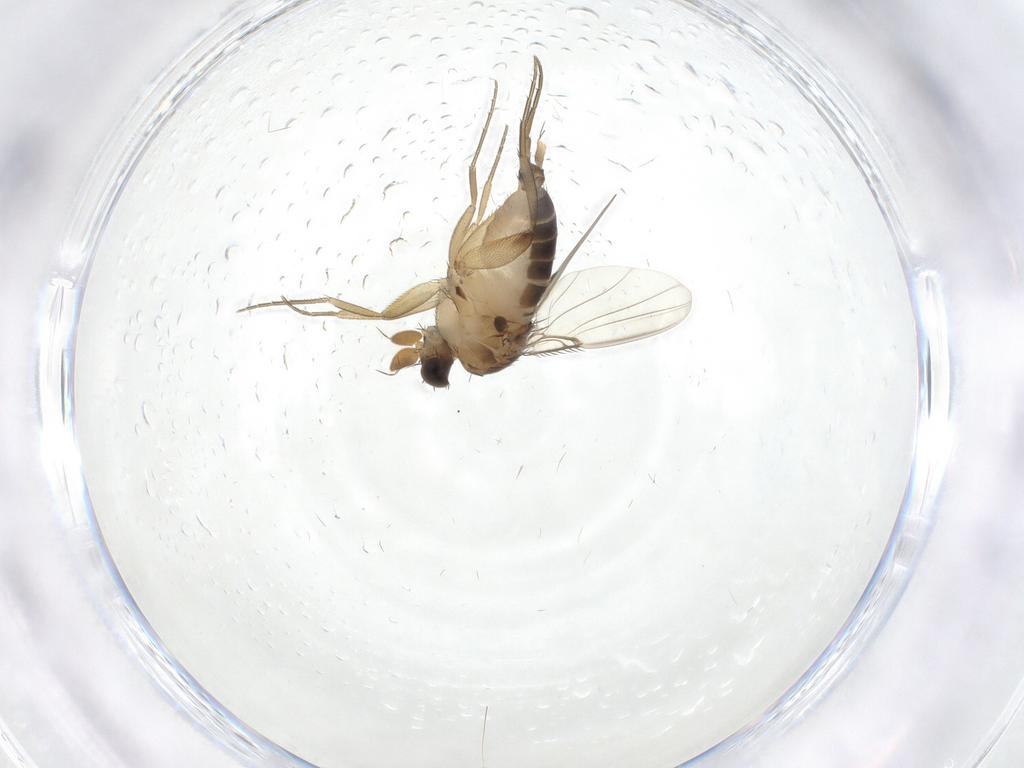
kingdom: Animalia
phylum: Arthropoda
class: Insecta
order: Diptera
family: Phoridae
